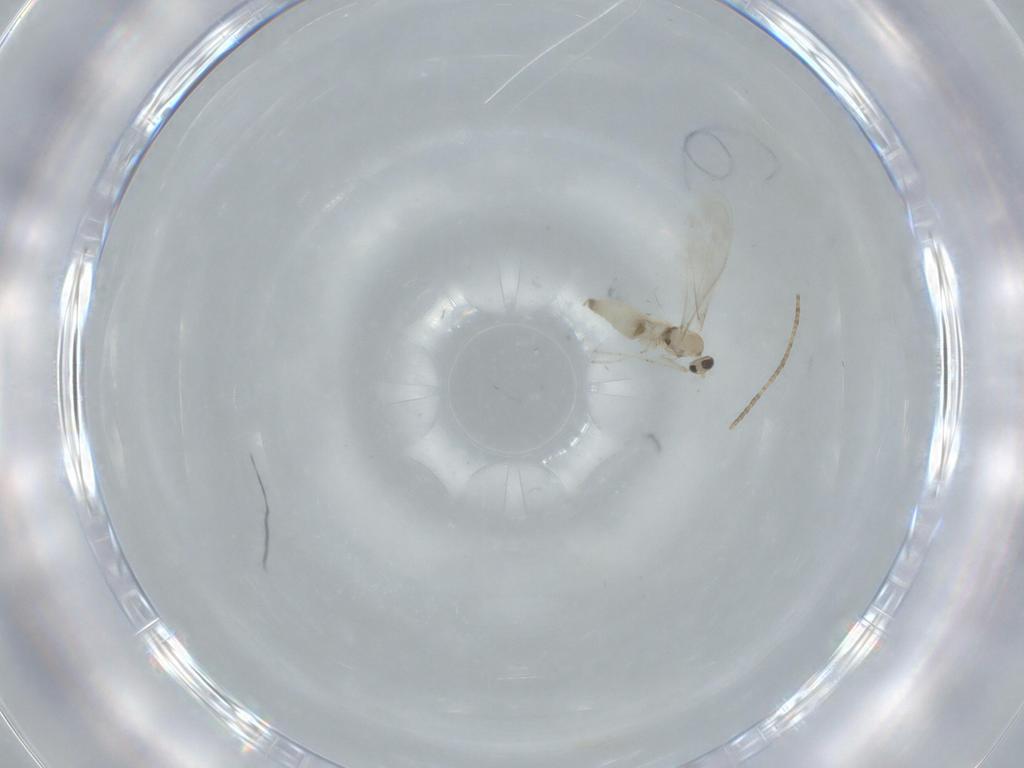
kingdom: Animalia
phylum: Arthropoda
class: Insecta
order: Diptera
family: Cecidomyiidae
